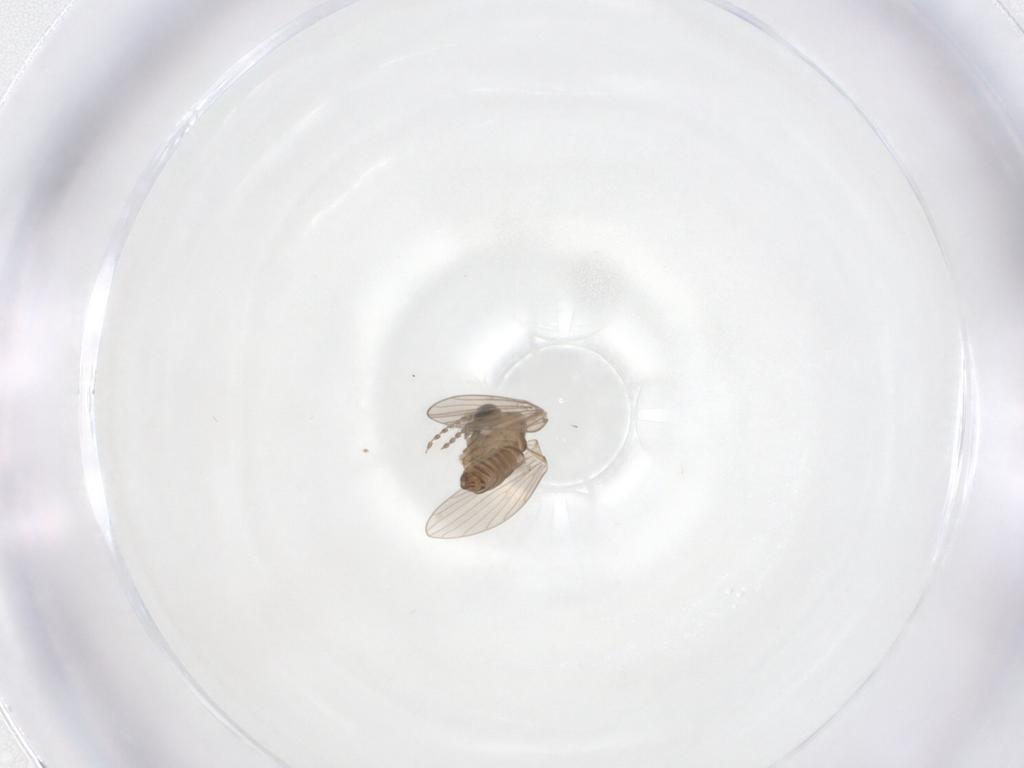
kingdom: Animalia
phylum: Arthropoda
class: Insecta
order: Diptera
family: Psychodidae
